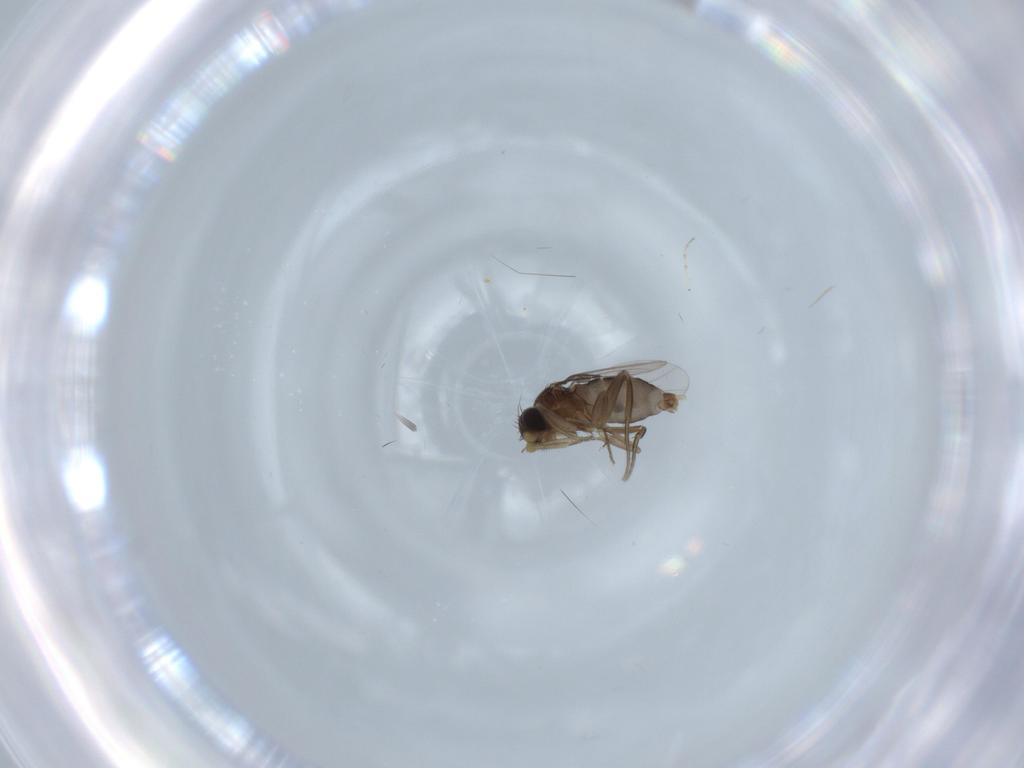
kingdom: Animalia
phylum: Arthropoda
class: Insecta
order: Diptera
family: Phoridae
